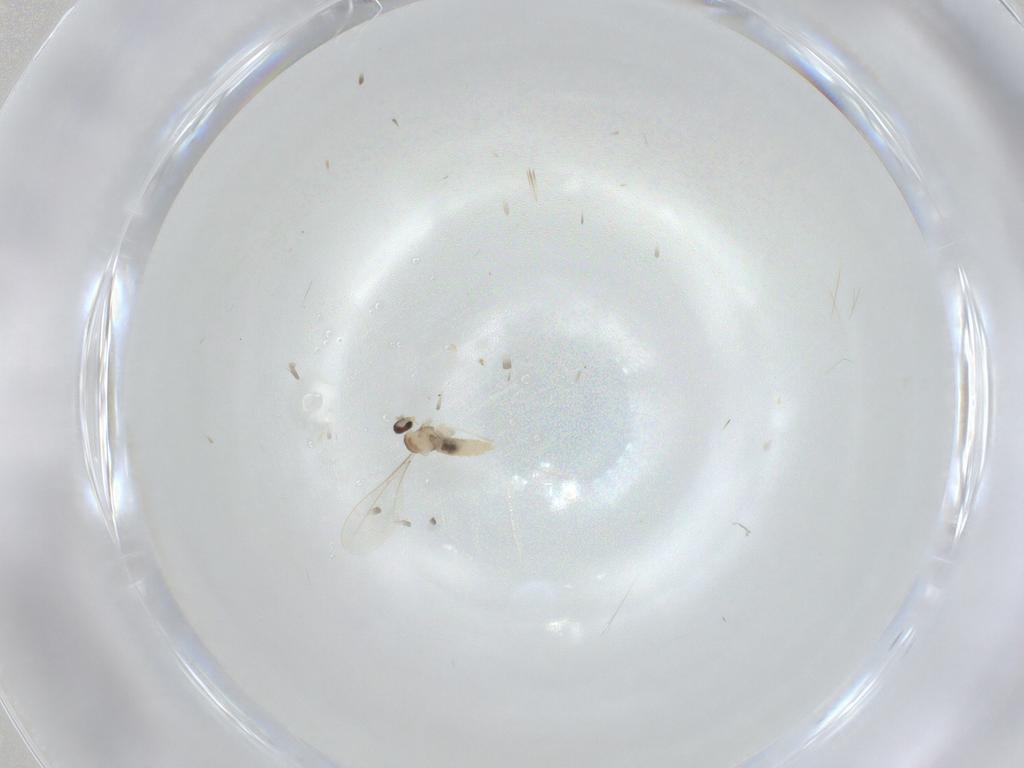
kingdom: Animalia
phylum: Arthropoda
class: Insecta
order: Diptera
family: Cecidomyiidae
